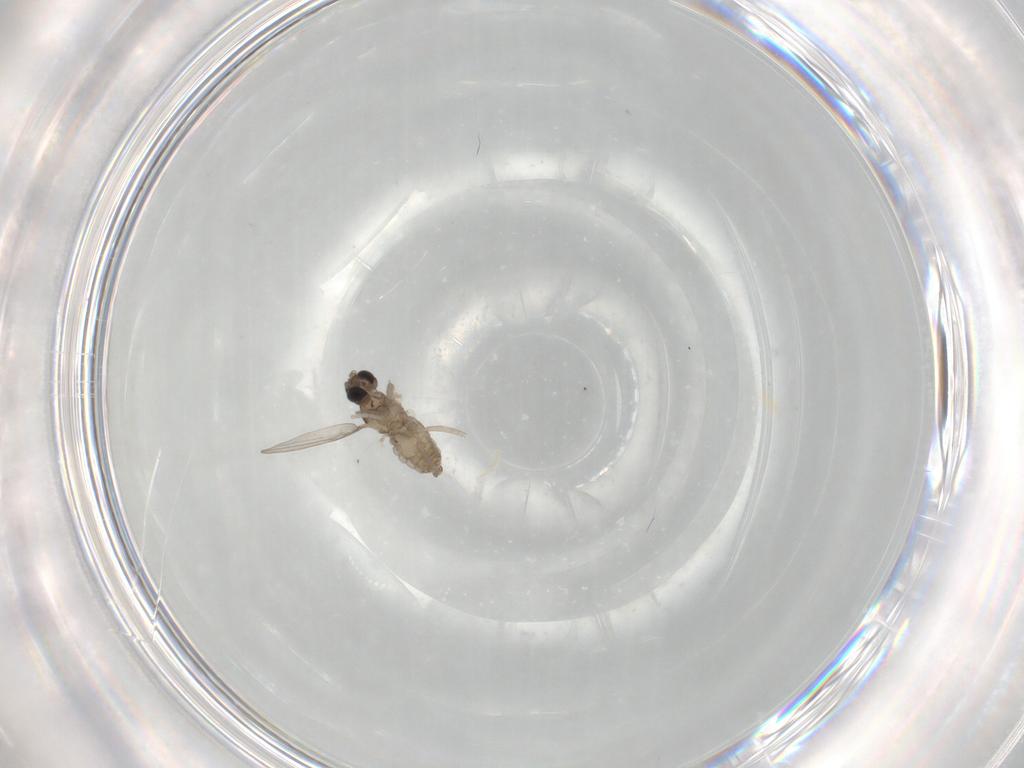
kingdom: Animalia
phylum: Arthropoda
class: Insecta
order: Diptera
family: Cecidomyiidae
